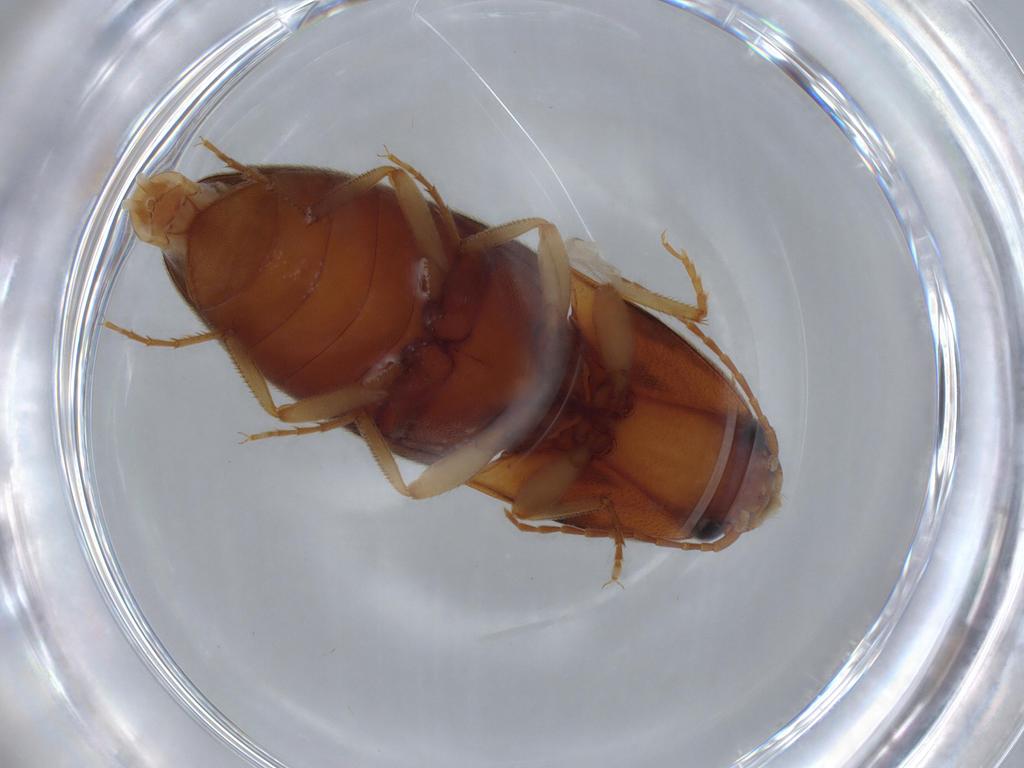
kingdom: Animalia
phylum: Arthropoda
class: Insecta
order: Coleoptera
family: Elateridae
